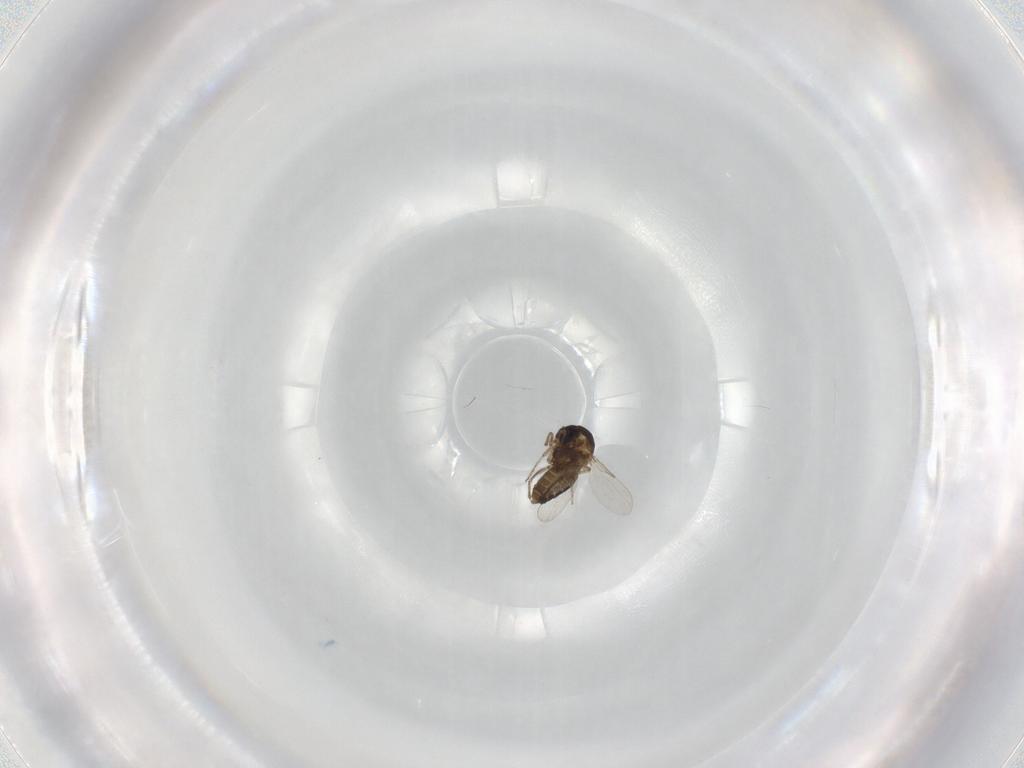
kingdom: Animalia
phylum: Arthropoda
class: Insecta
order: Diptera
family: Ceratopogonidae
